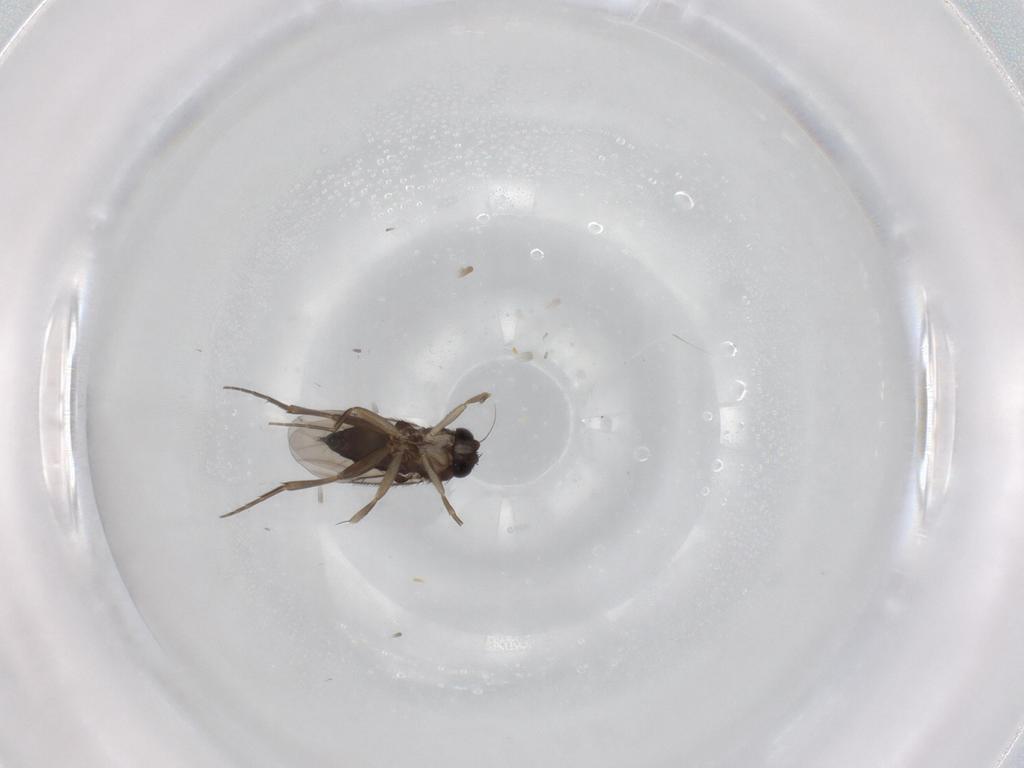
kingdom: Animalia
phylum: Arthropoda
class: Insecta
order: Diptera
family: Phoridae
